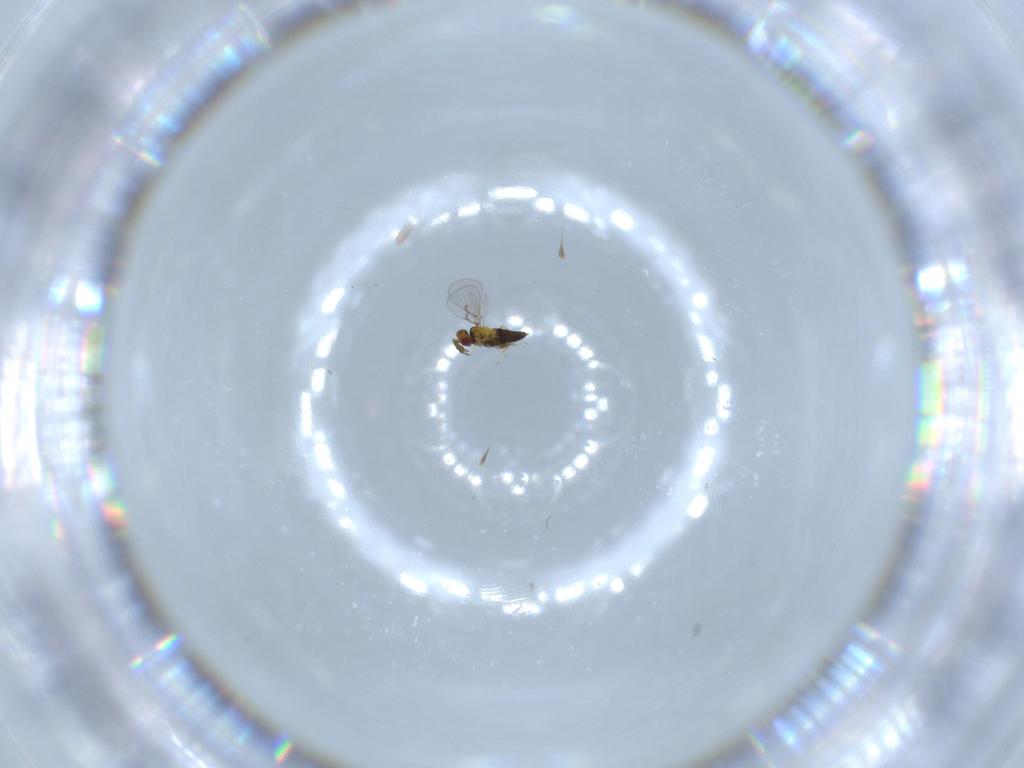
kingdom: Animalia
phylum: Arthropoda
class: Insecta
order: Hymenoptera
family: Trichogrammatidae
